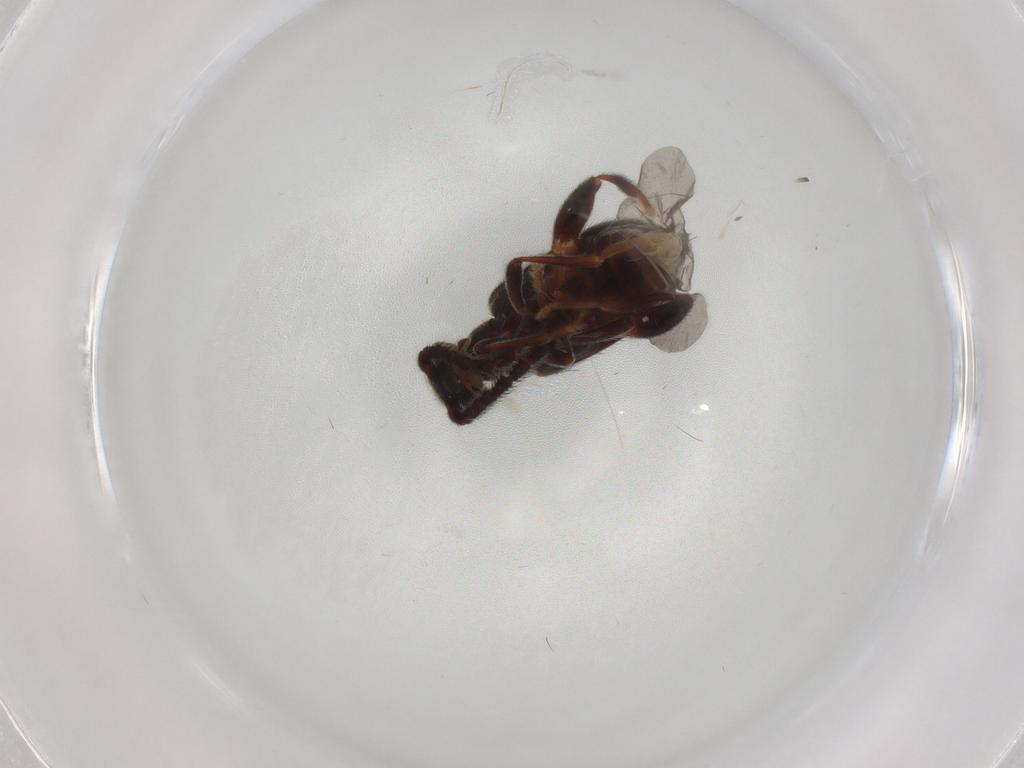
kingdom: Animalia
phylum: Arthropoda
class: Insecta
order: Coleoptera
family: Aderidae
